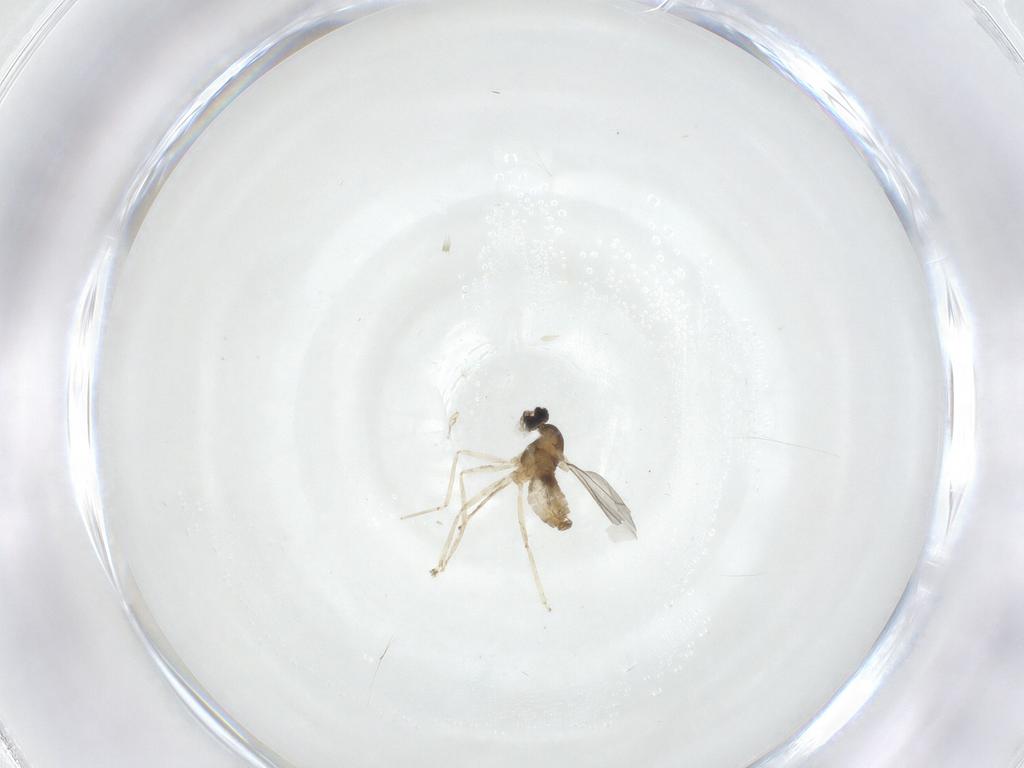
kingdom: Animalia
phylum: Arthropoda
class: Insecta
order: Diptera
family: Cecidomyiidae
